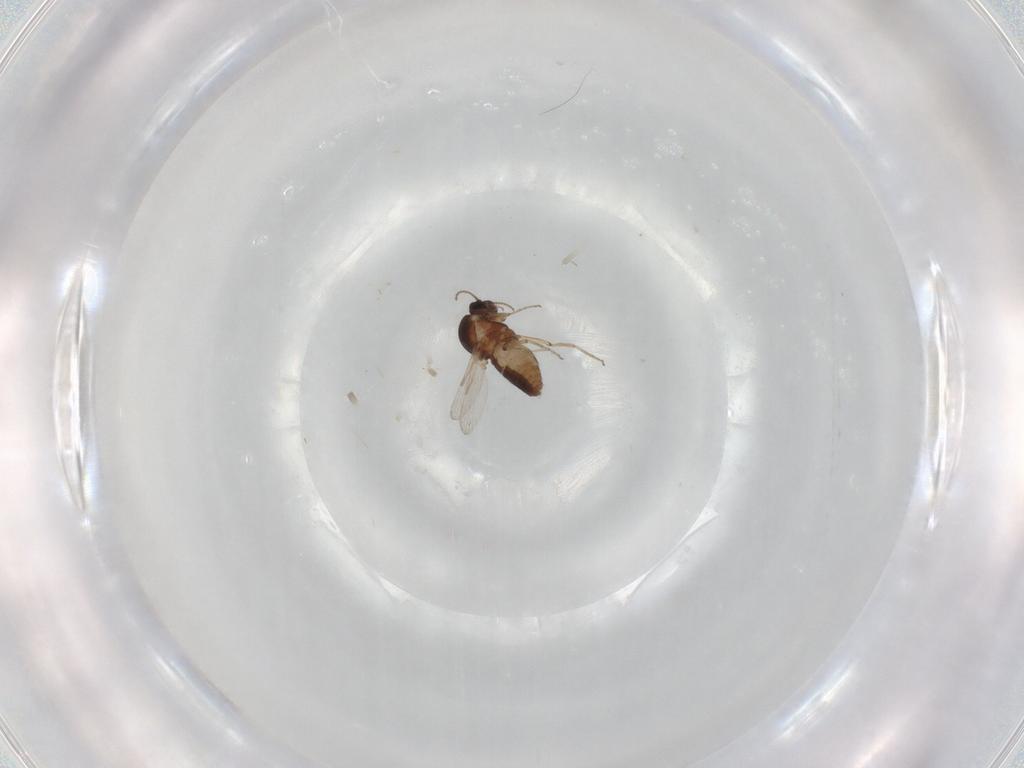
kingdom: Animalia
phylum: Arthropoda
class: Insecta
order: Diptera
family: Ceratopogonidae
